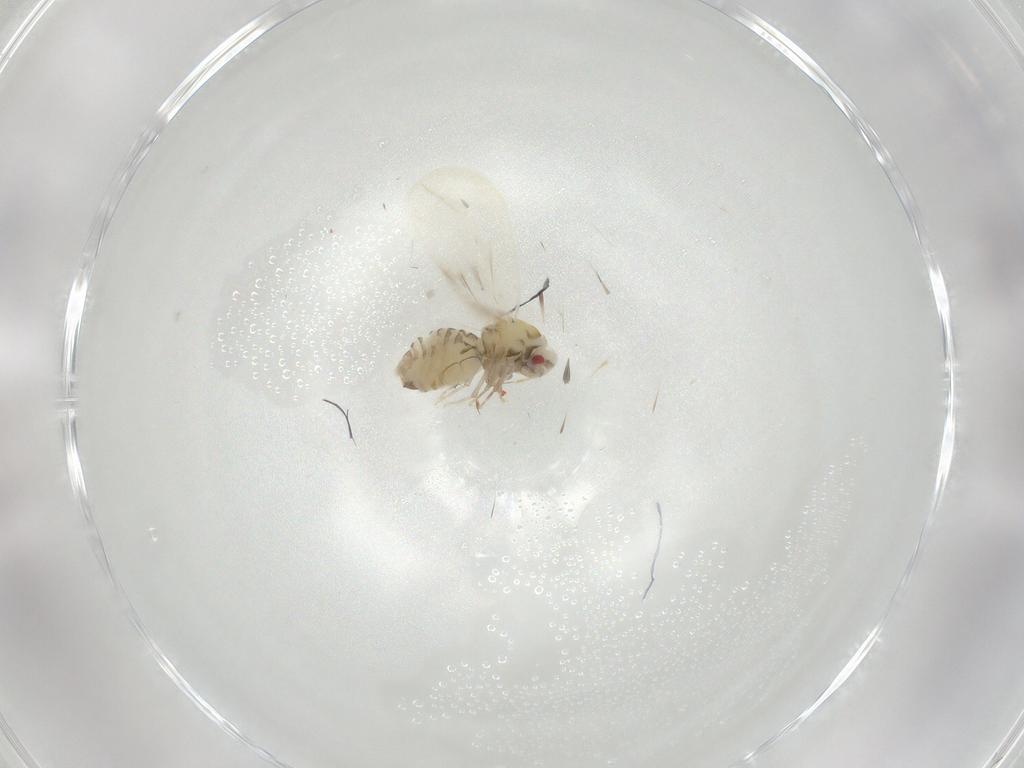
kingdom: Animalia
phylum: Arthropoda
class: Insecta
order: Hemiptera
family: Aleyrodidae
